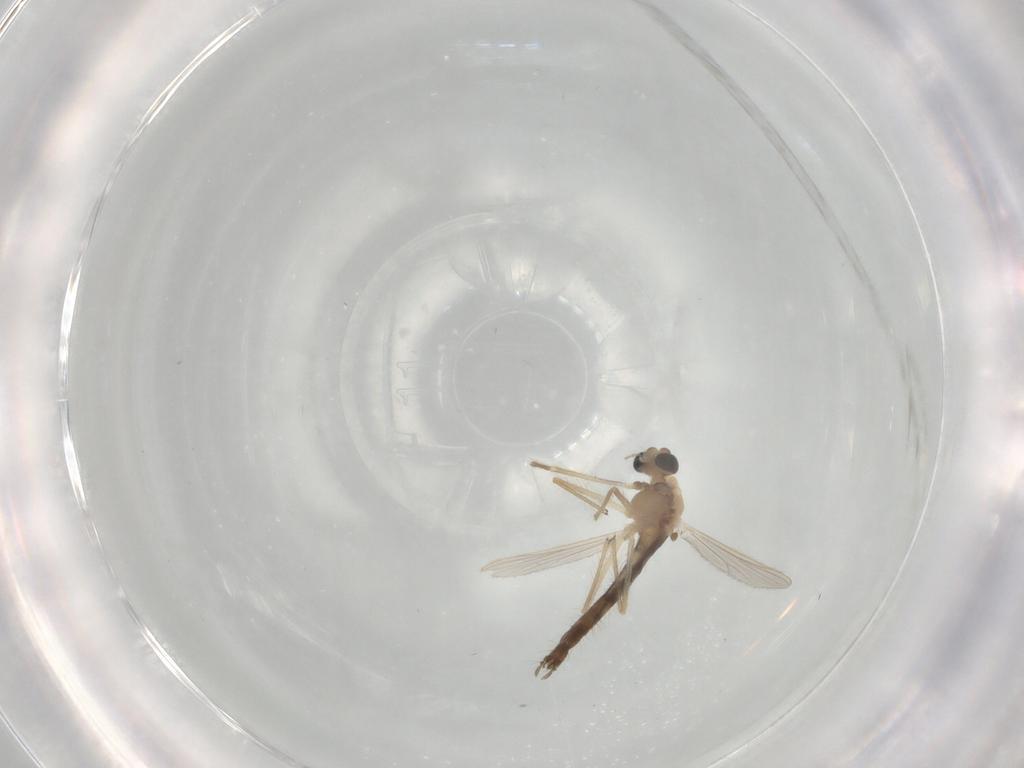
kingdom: Animalia
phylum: Arthropoda
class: Insecta
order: Diptera
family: Chironomidae
